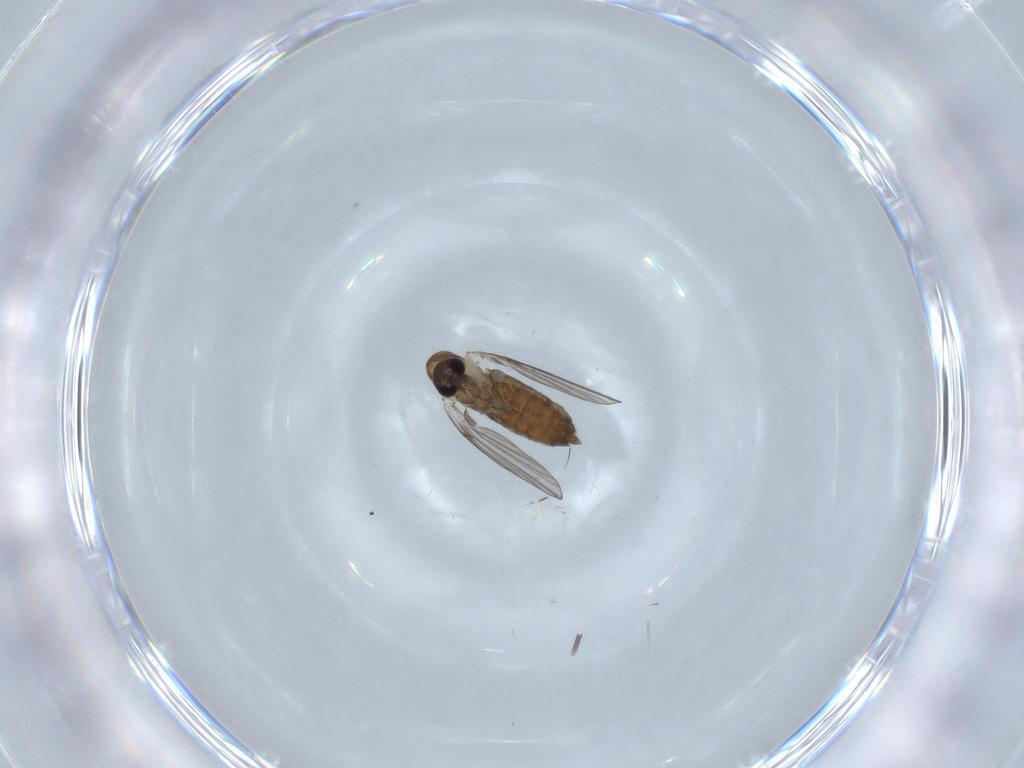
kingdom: Animalia
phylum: Arthropoda
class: Insecta
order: Diptera
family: Psychodidae
